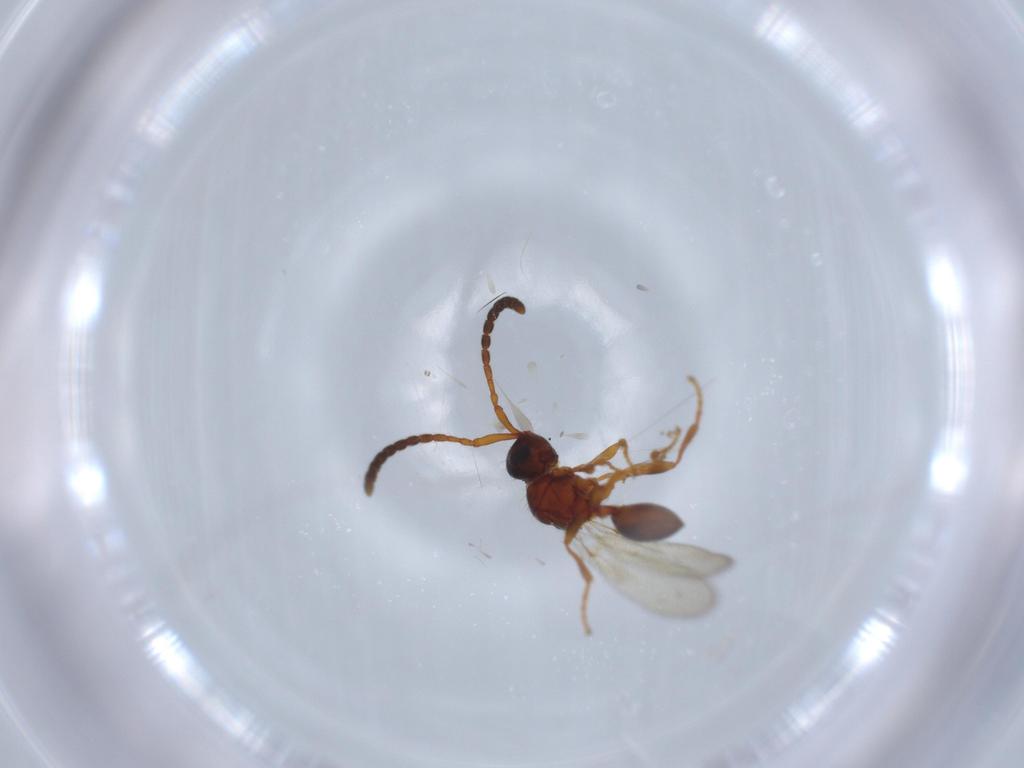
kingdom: Animalia
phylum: Arthropoda
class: Insecta
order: Hymenoptera
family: Diapriidae
